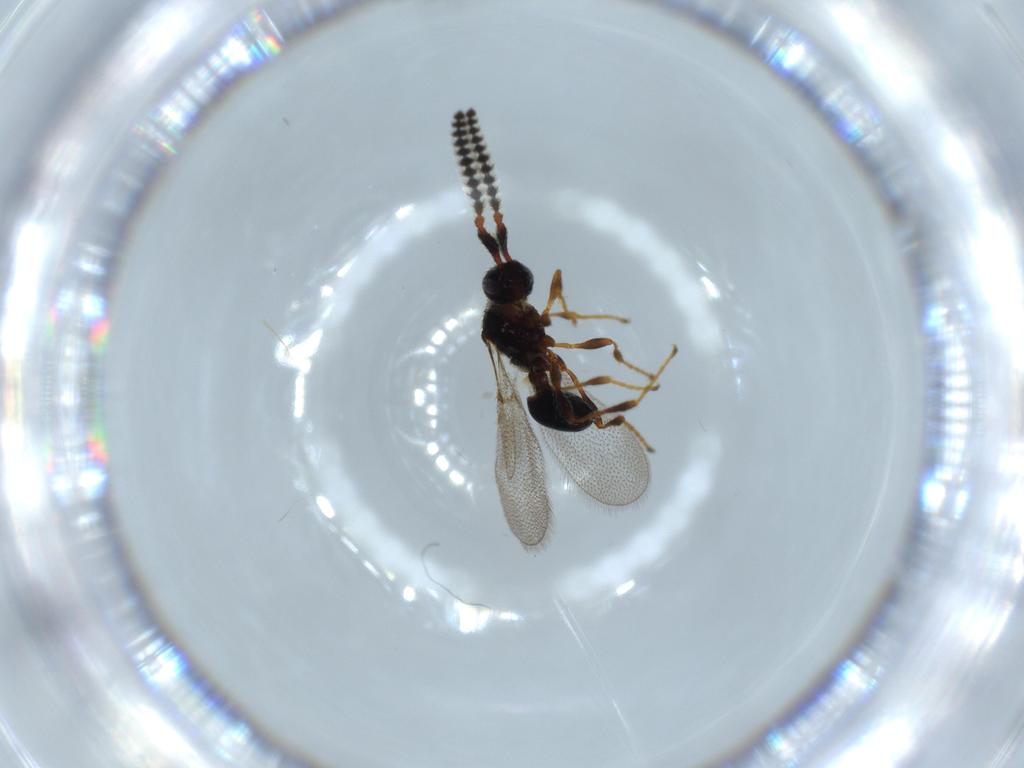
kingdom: Animalia
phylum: Arthropoda
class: Insecta
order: Hymenoptera
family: Diapriidae
